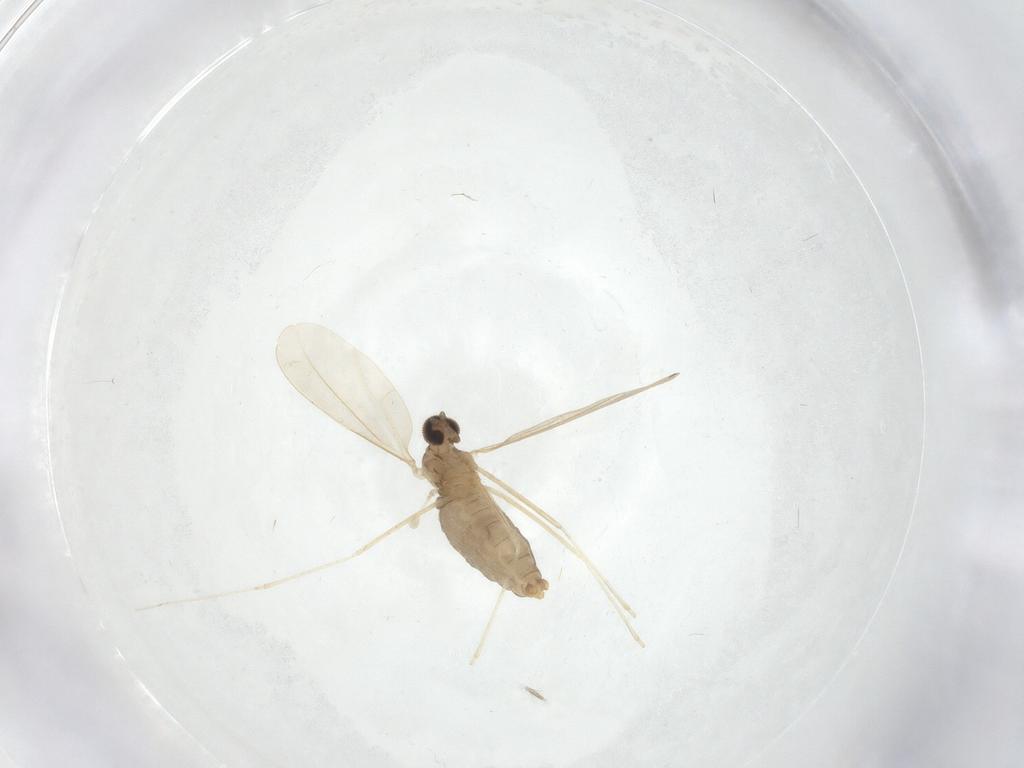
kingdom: Animalia
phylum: Arthropoda
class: Insecta
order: Diptera
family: Cecidomyiidae
